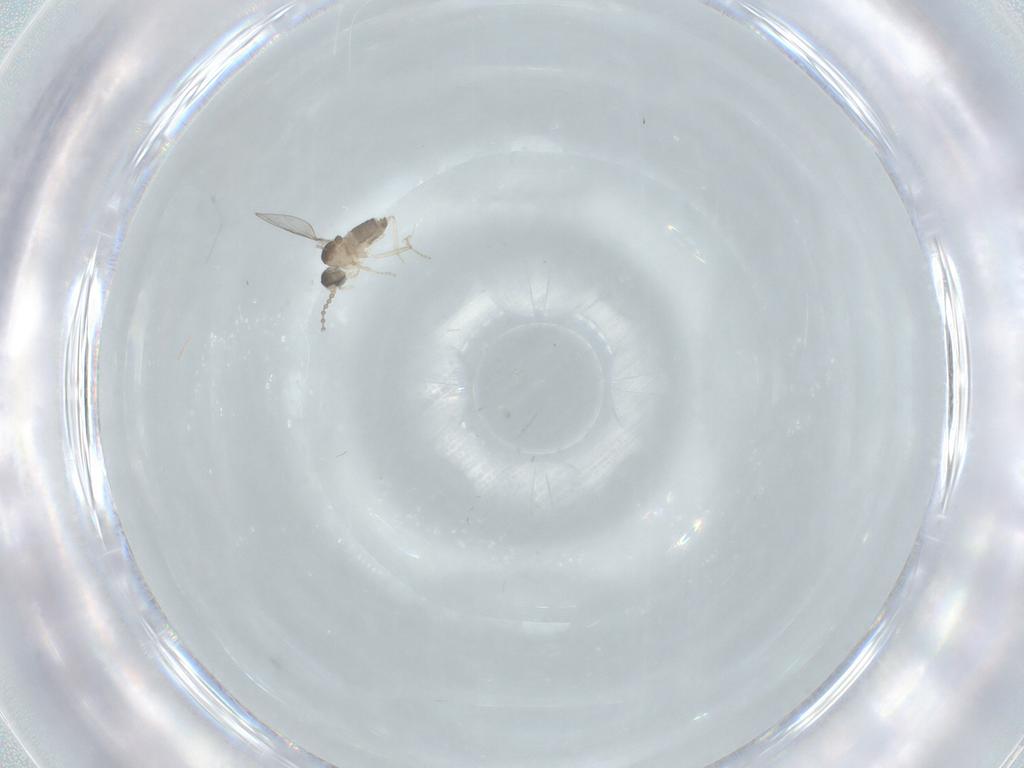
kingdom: Animalia
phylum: Arthropoda
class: Insecta
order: Diptera
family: Cecidomyiidae
